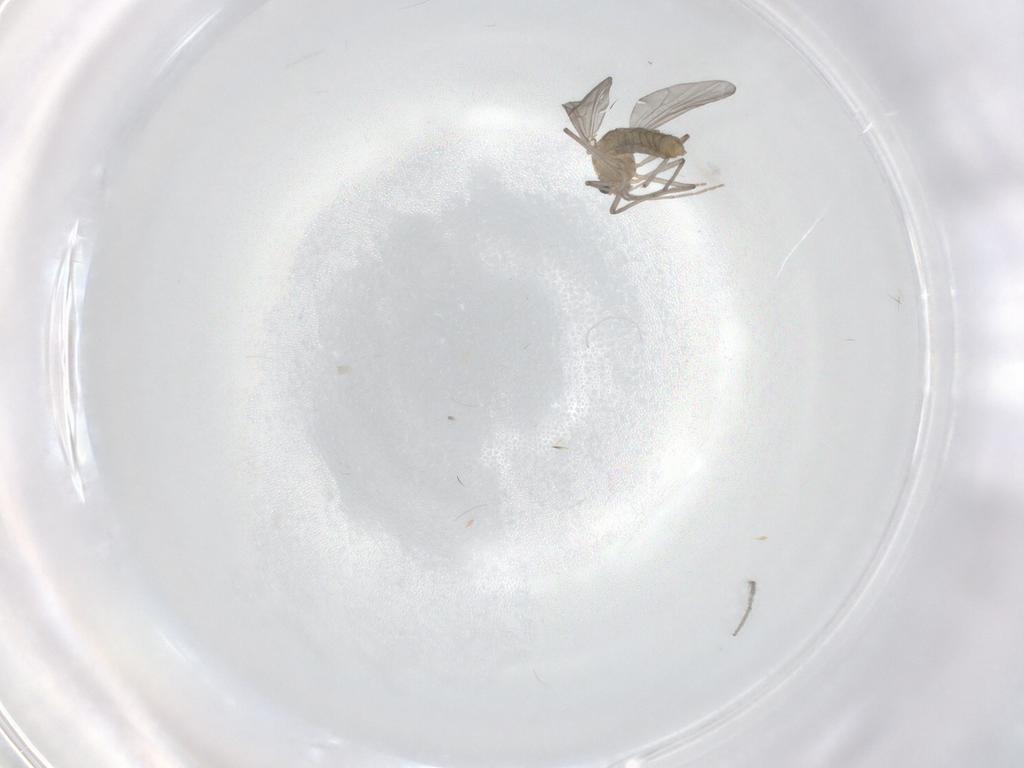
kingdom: Animalia
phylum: Arthropoda
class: Insecta
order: Diptera
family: Chironomidae
